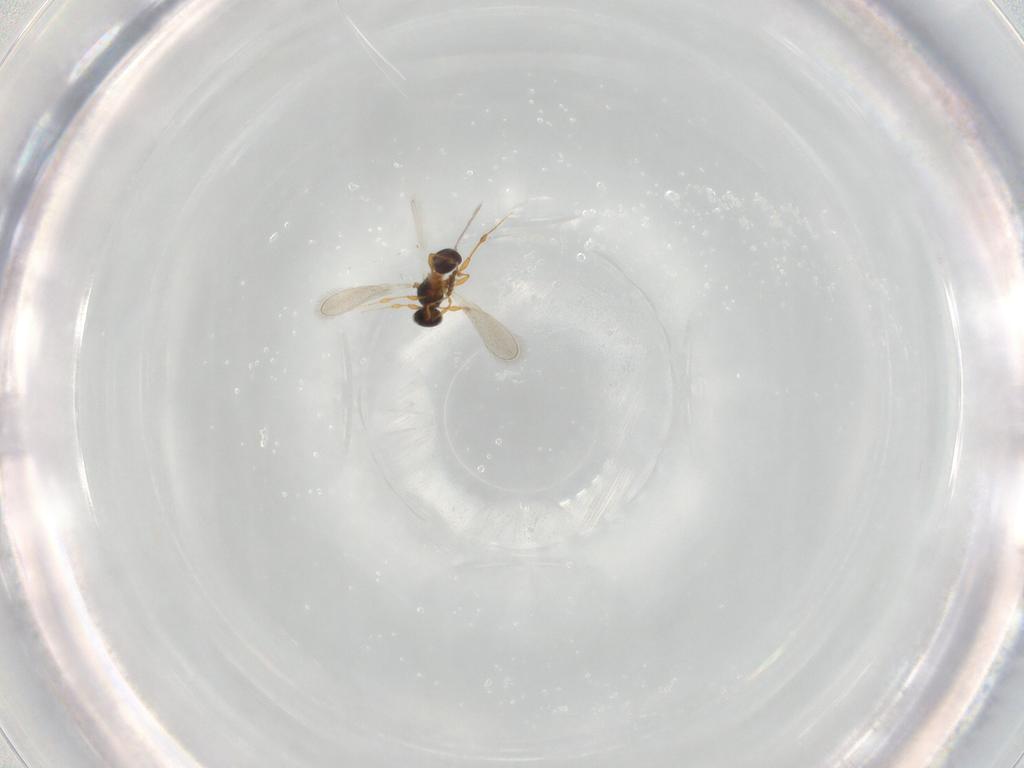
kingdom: Animalia
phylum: Arthropoda
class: Insecta
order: Hymenoptera
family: Platygastridae
